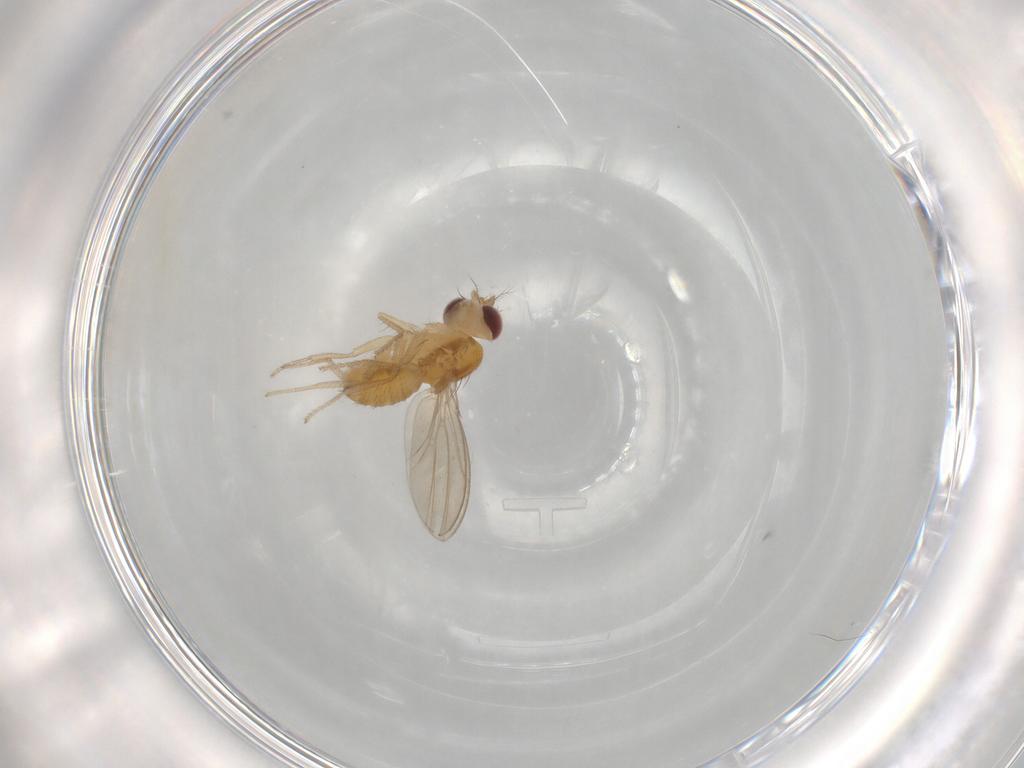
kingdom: Animalia
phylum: Arthropoda
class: Insecta
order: Diptera
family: Drosophilidae
